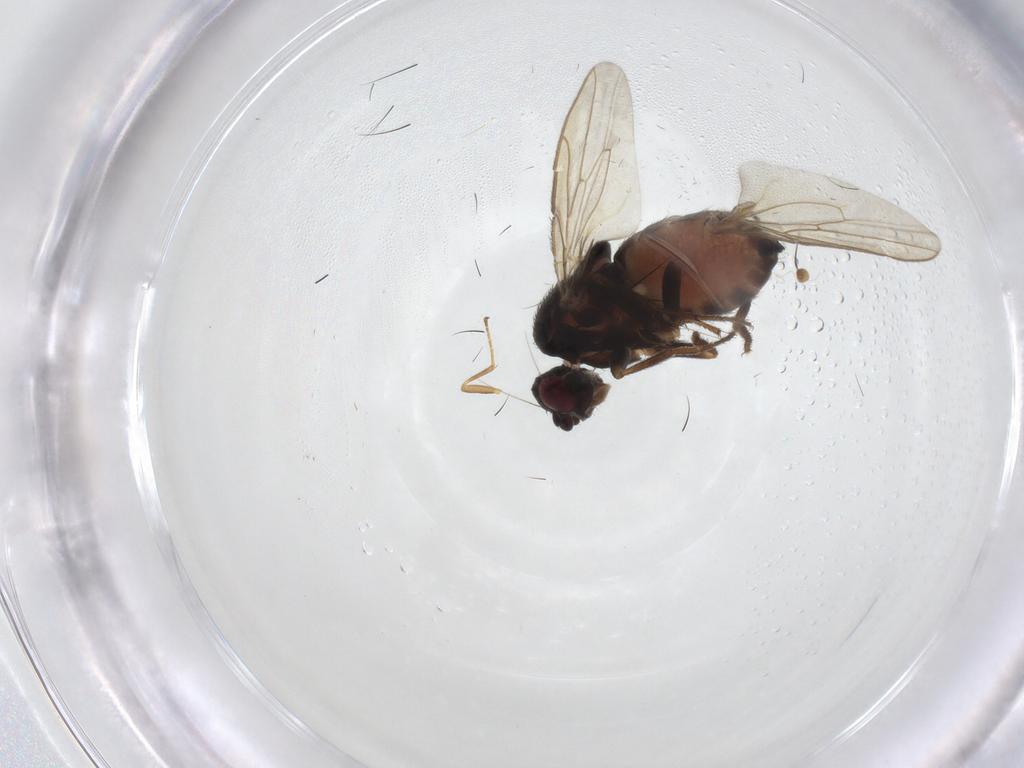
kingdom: Animalia
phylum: Arthropoda
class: Insecta
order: Diptera
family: Sphaeroceridae
